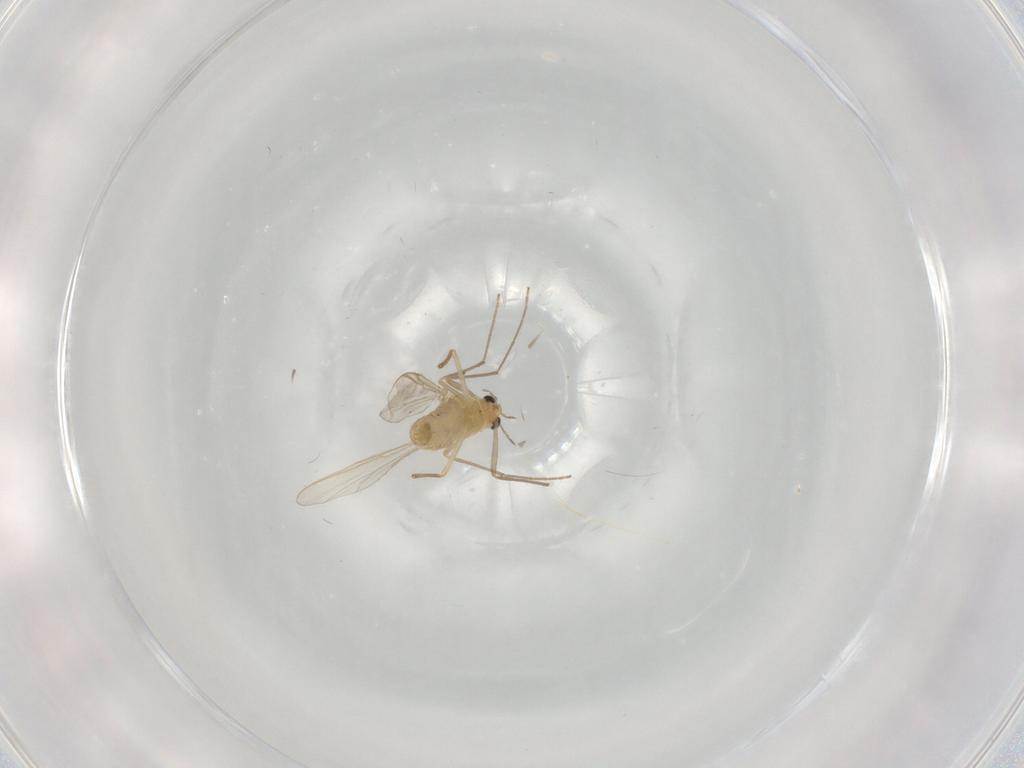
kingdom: Animalia
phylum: Arthropoda
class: Insecta
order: Diptera
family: Chironomidae
